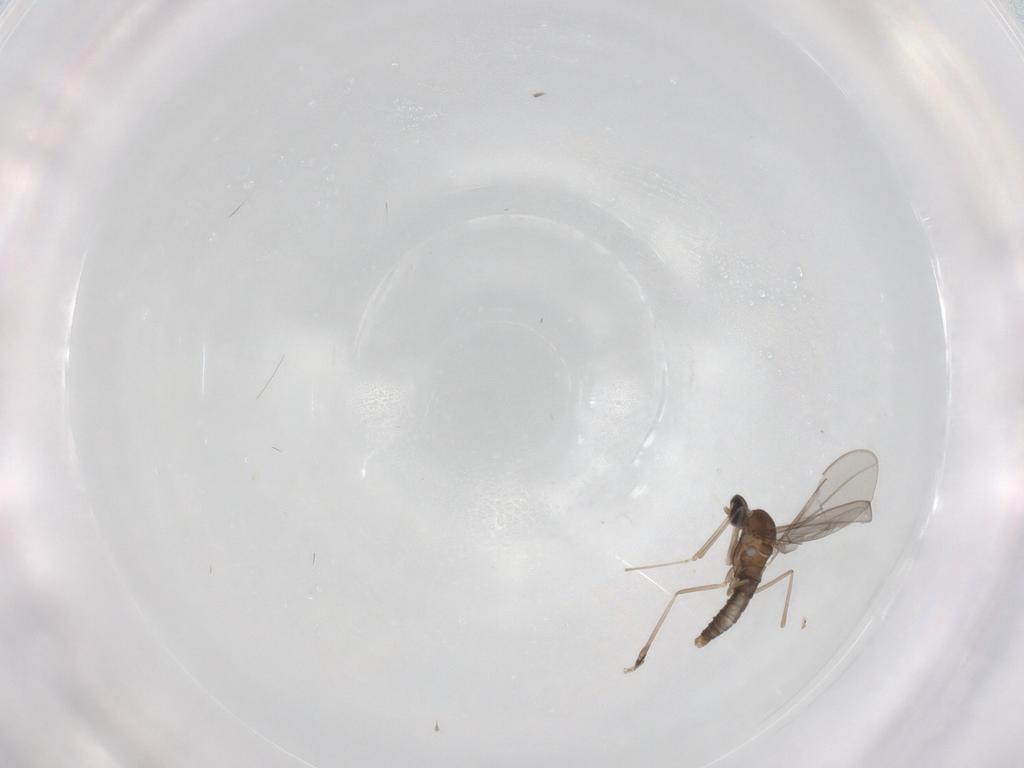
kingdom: Animalia
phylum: Arthropoda
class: Insecta
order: Diptera
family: Cecidomyiidae
